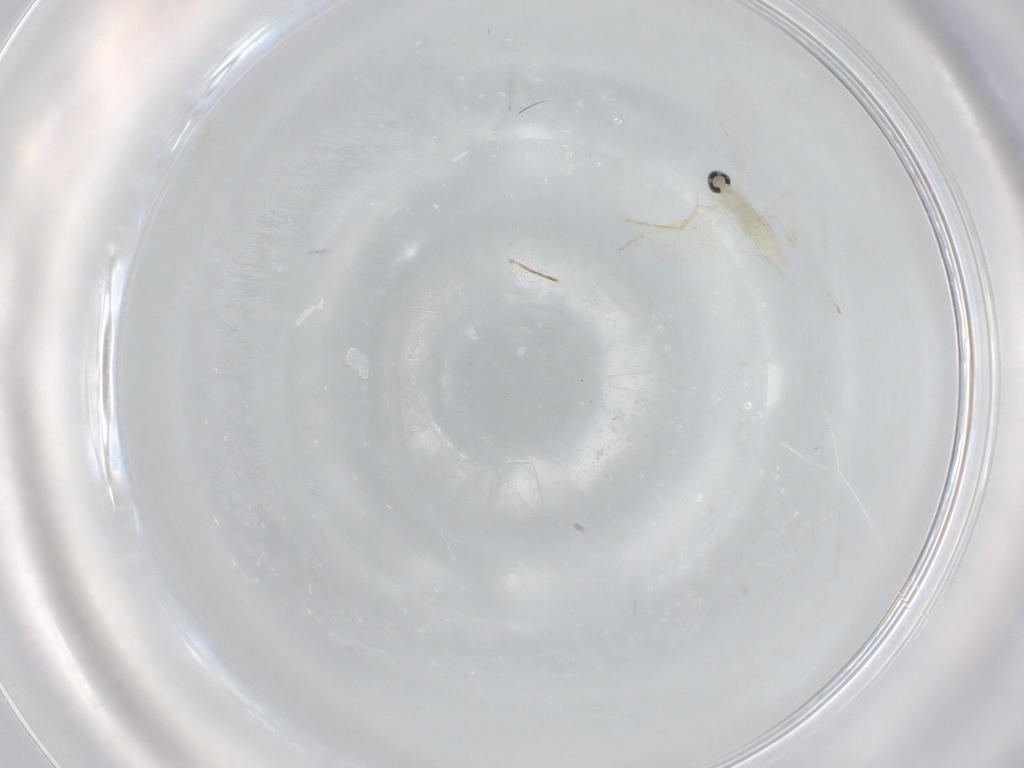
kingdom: Animalia
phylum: Arthropoda
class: Insecta
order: Diptera
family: Cecidomyiidae
